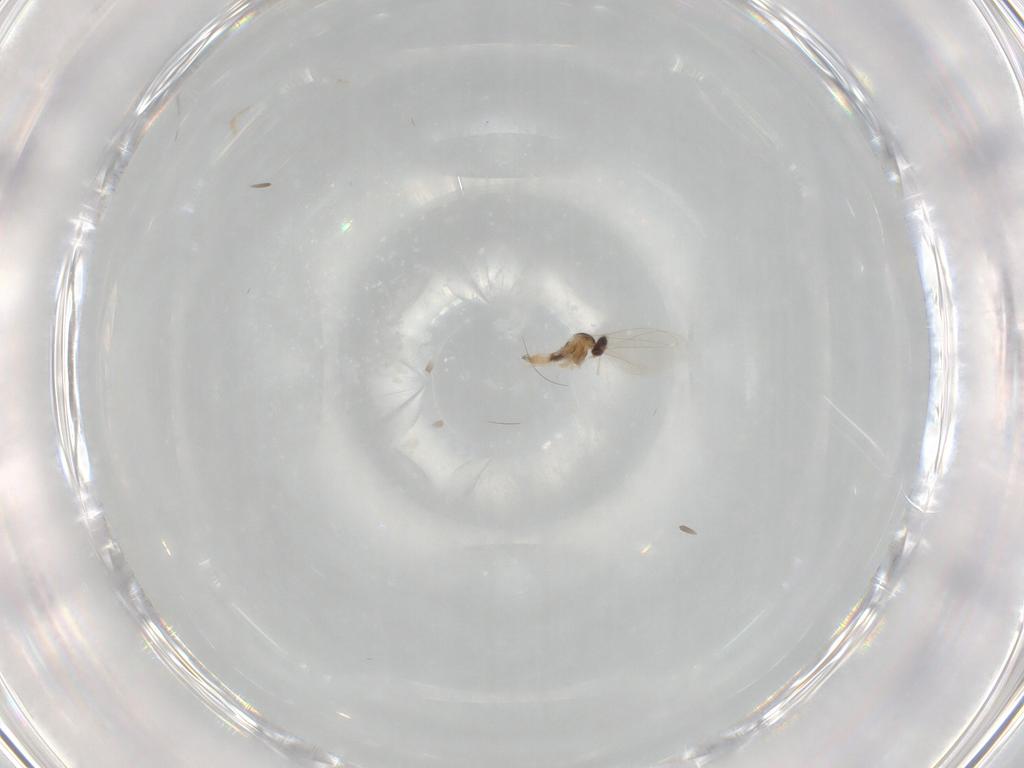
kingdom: Animalia
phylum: Arthropoda
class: Insecta
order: Diptera
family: Cecidomyiidae
